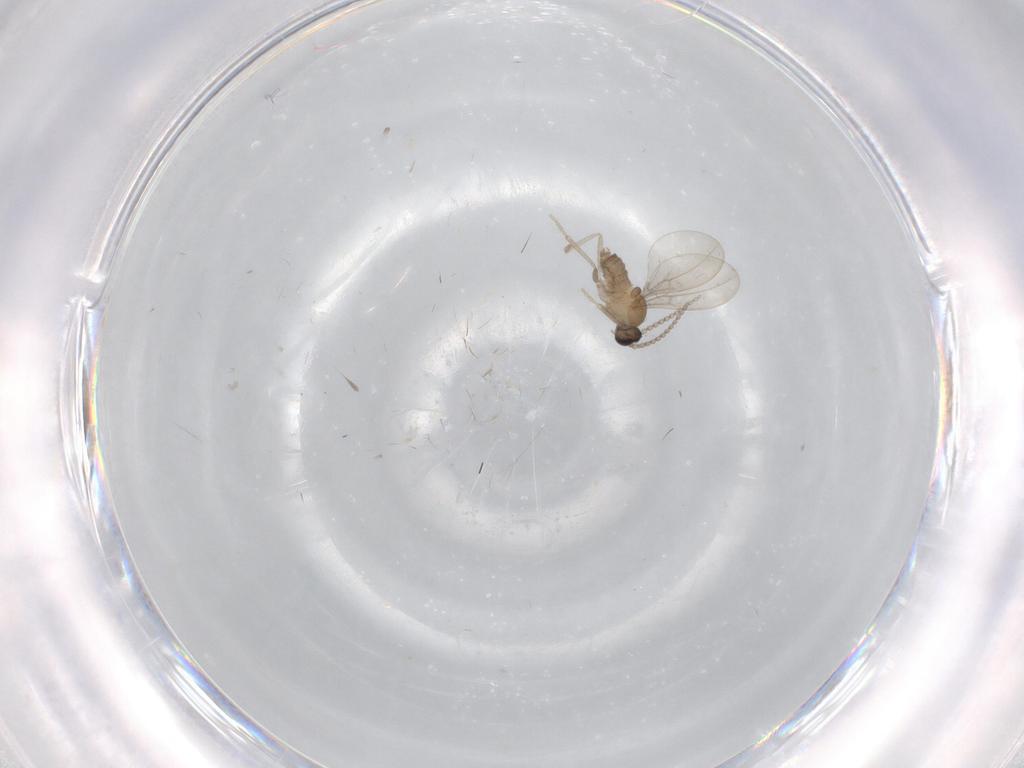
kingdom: Animalia
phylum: Arthropoda
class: Insecta
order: Diptera
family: Cecidomyiidae
